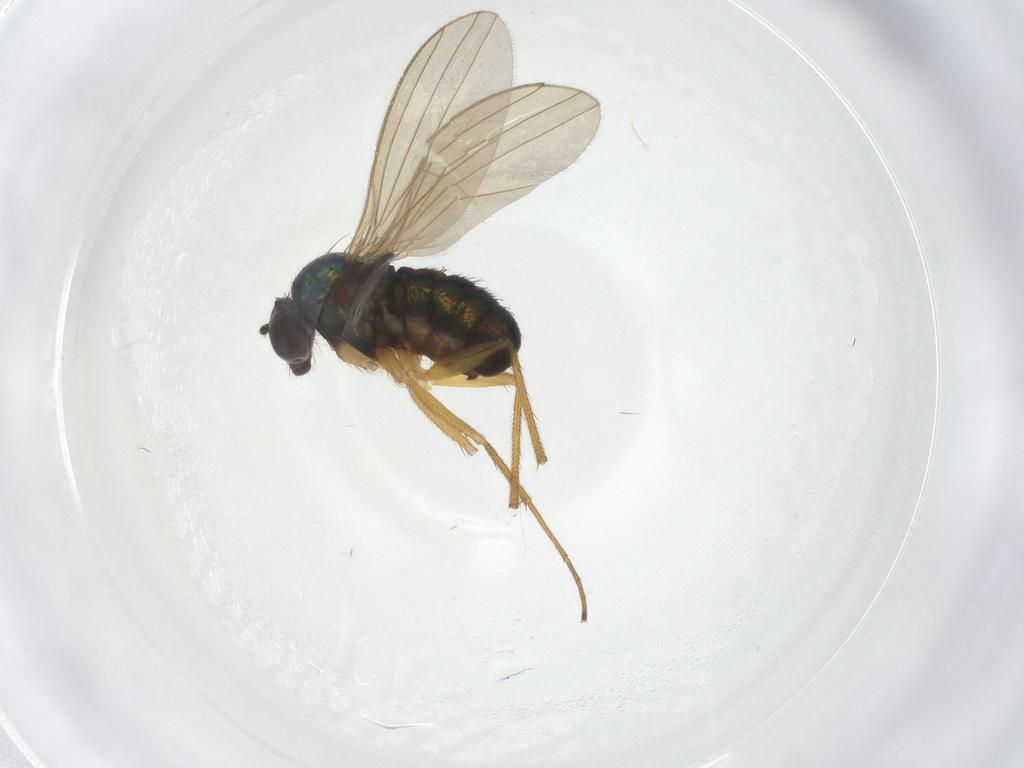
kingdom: Animalia
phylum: Arthropoda
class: Insecta
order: Diptera
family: Dolichopodidae
